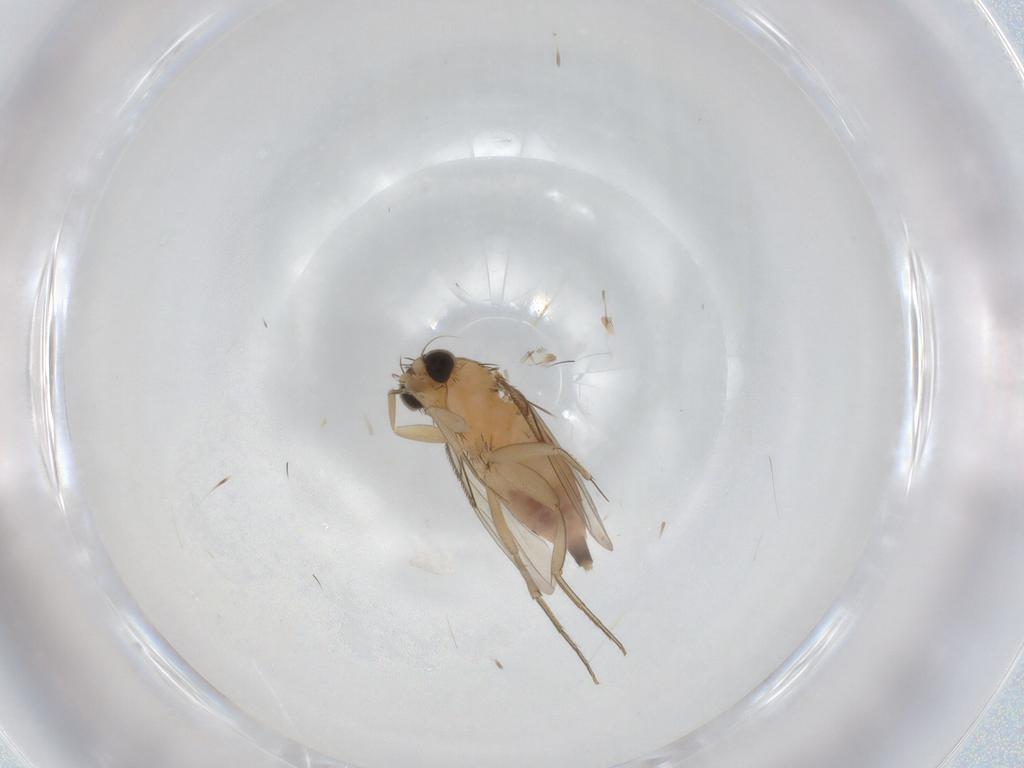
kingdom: Animalia
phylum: Arthropoda
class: Insecta
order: Diptera
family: Phoridae
